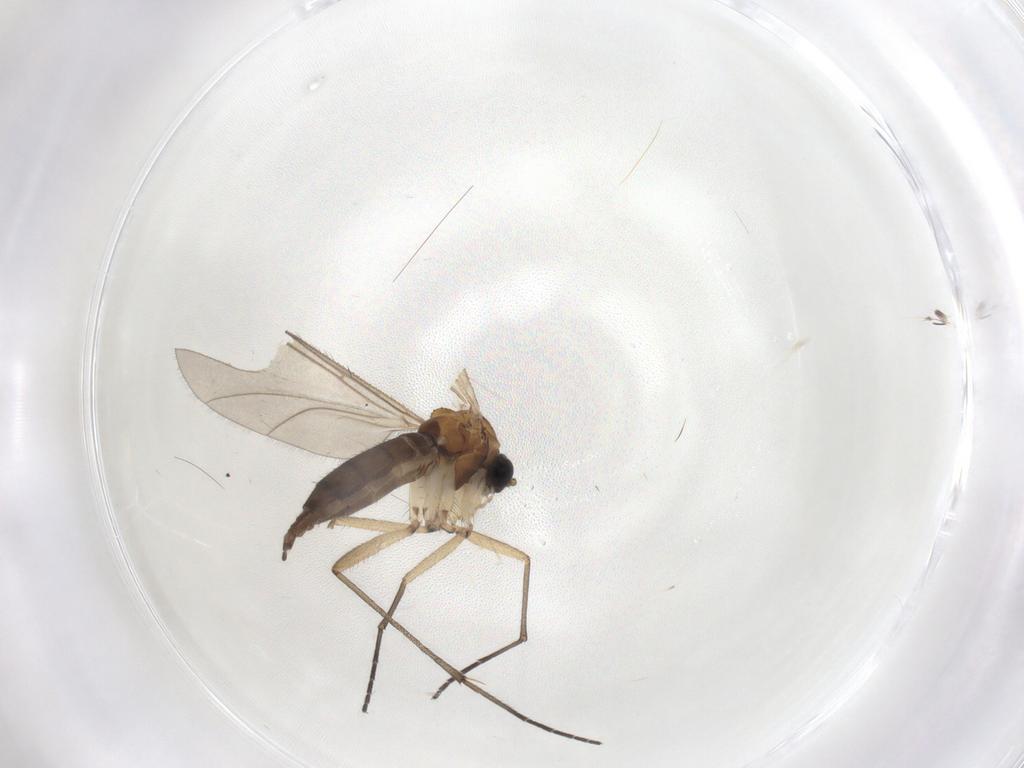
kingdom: Animalia
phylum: Arthropoda
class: Insecta
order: Diptera
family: Sciaridae
